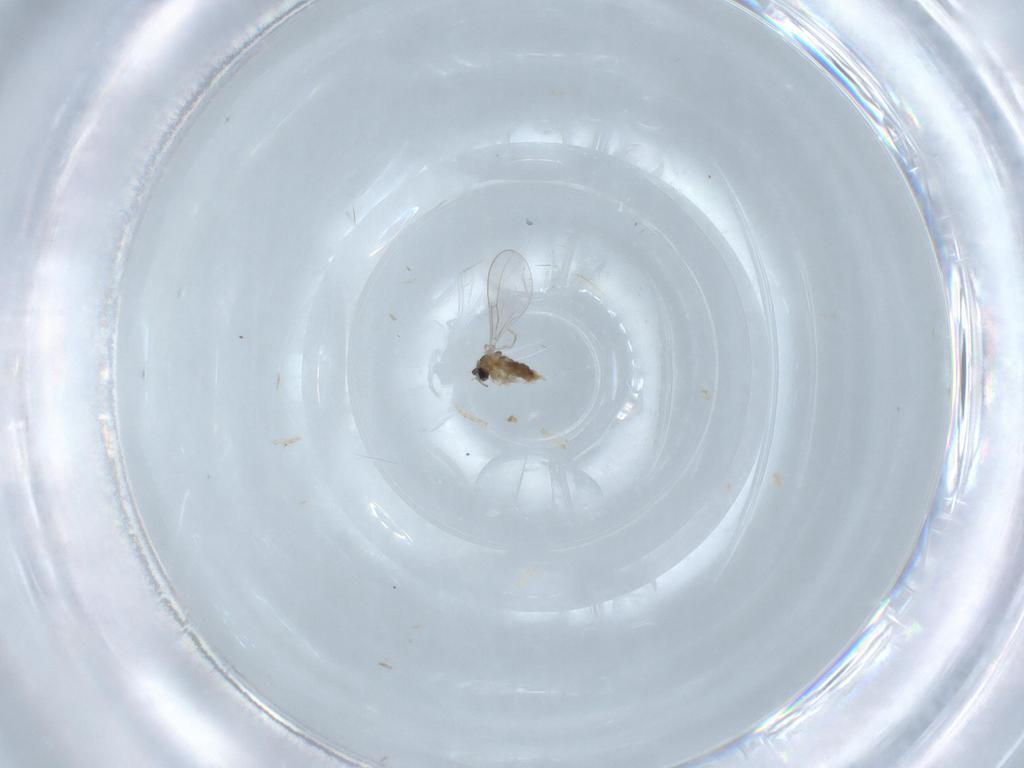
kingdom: Animalia
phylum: Arthropoda
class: Insecta
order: Diptera
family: Cecidomyiidae
